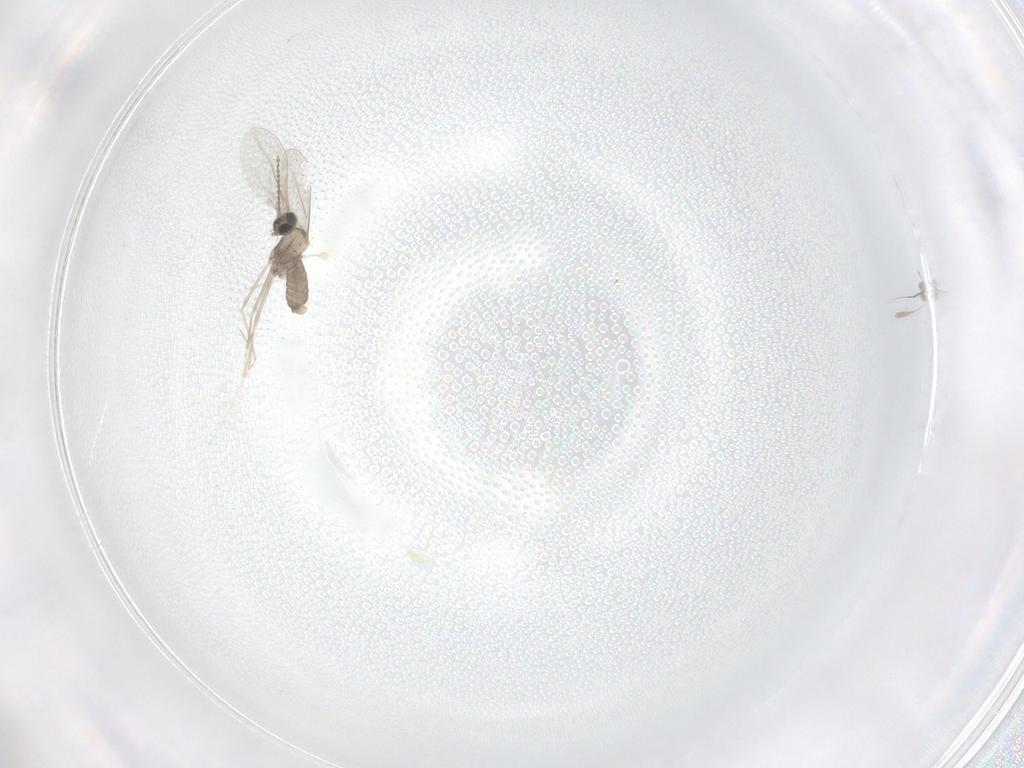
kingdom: Animalia
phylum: Arthropoda
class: Insecta
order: Diptera
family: Cecidomyiidae
